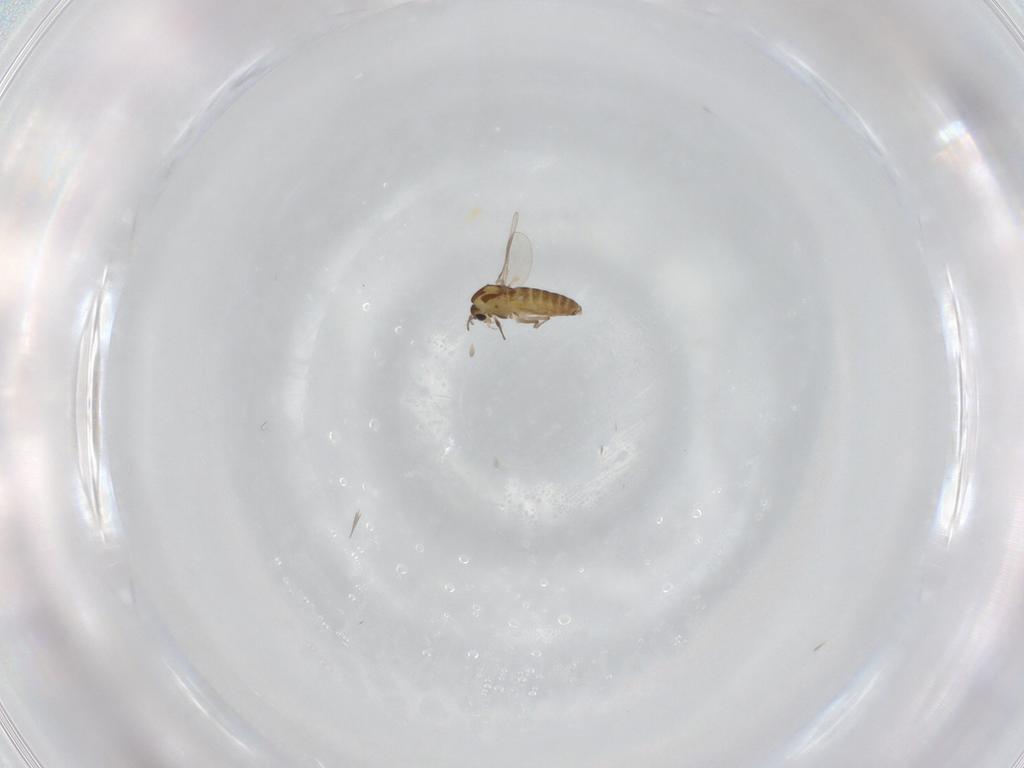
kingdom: Animalia
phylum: Arthropoda
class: Insecta
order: Diptera
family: Chironomidae
